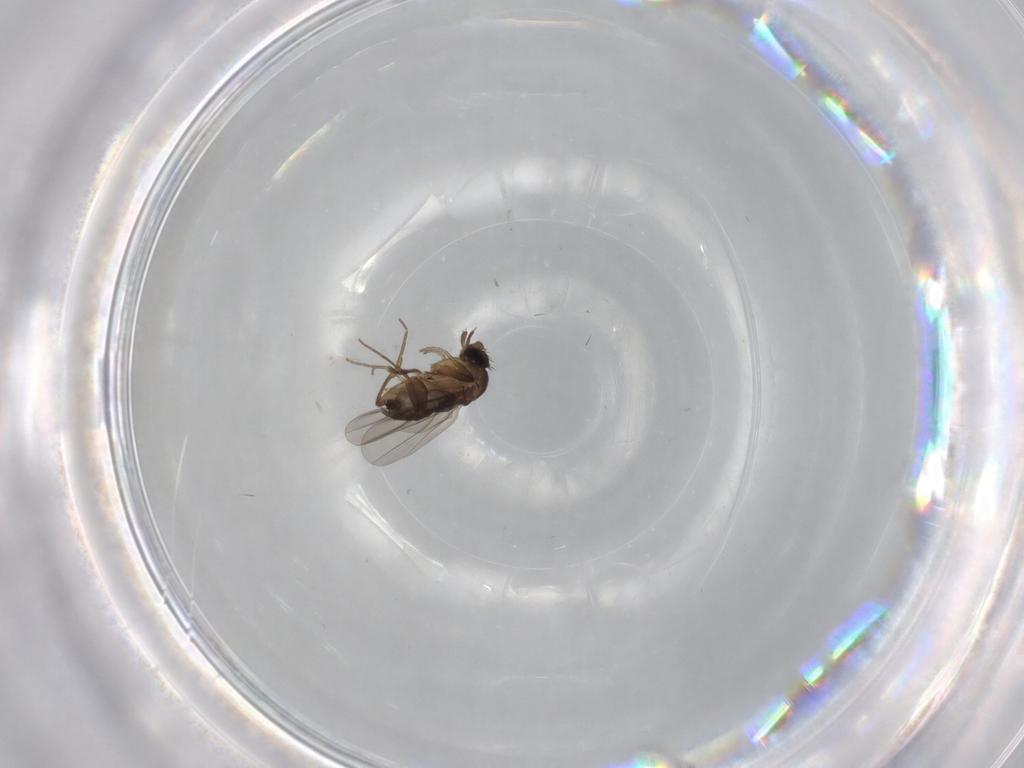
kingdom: Animalia
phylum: Arthropoda
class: Insecta
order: Diptera
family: Phoridae
